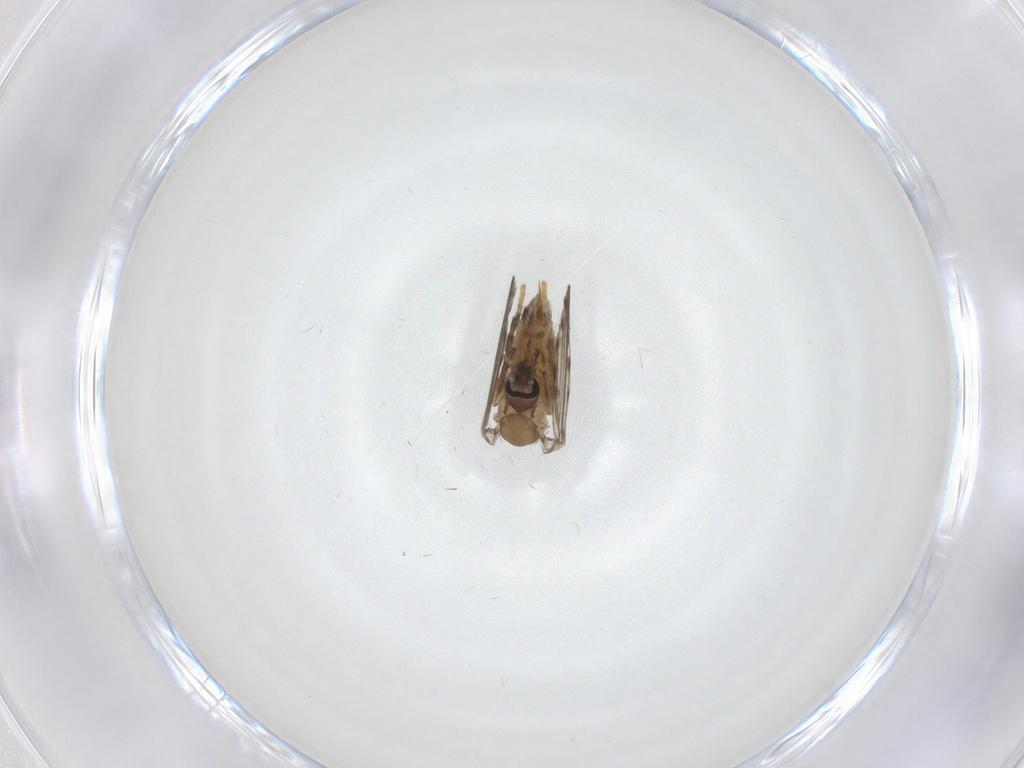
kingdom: Animalia
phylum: Arthropoda
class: Insecta
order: Diptera
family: Psychodidae
